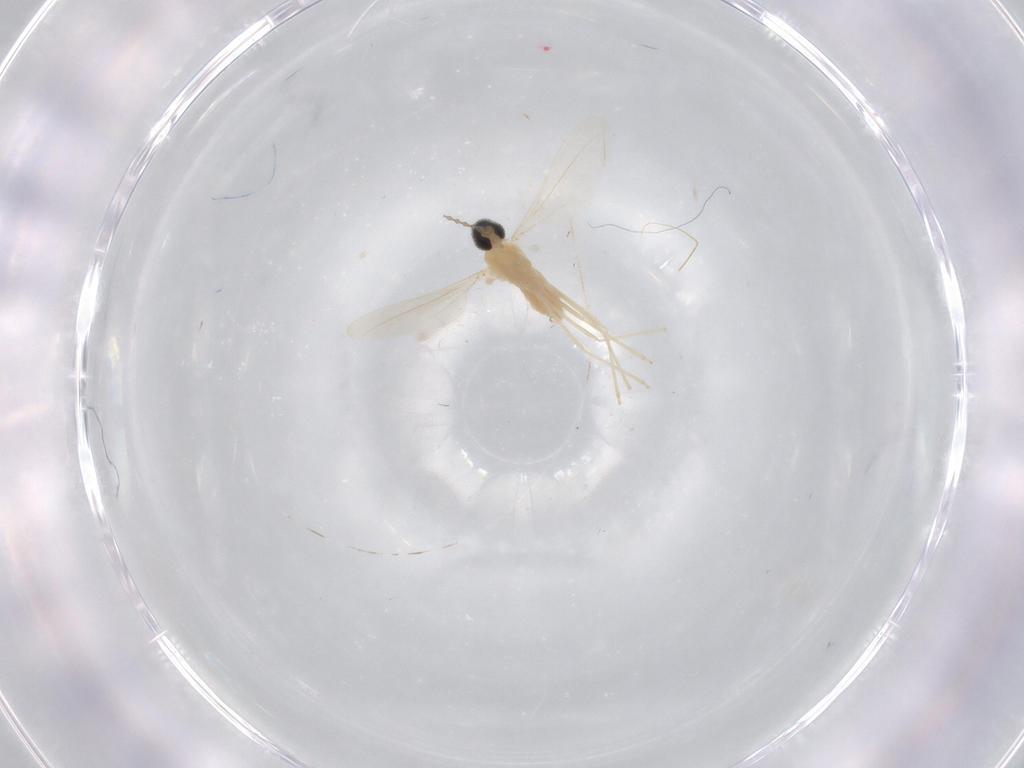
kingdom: Animalia
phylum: Arthropoda
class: Insecta
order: Diptera
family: Cecidomyiidae
